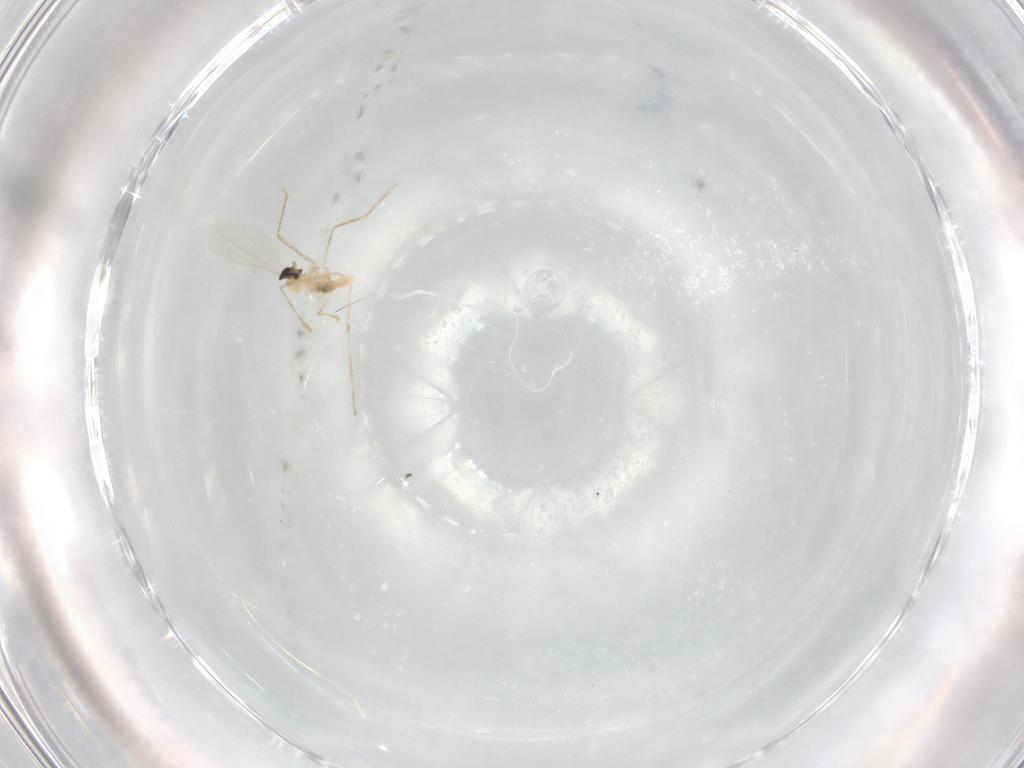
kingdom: Animalia
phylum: Arthropoda
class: Insecta
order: Diptera
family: Cecidomyiidae
